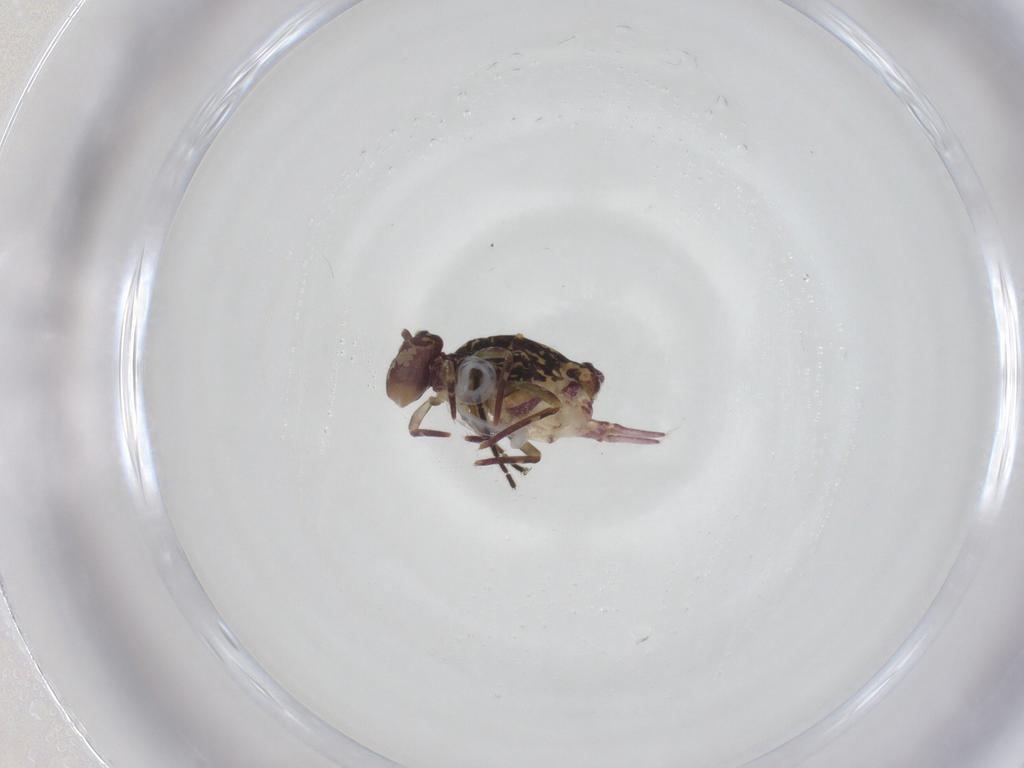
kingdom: Animalia
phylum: Arthropoda
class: Collembola
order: Symphypleona
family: Dicyrtomidae
